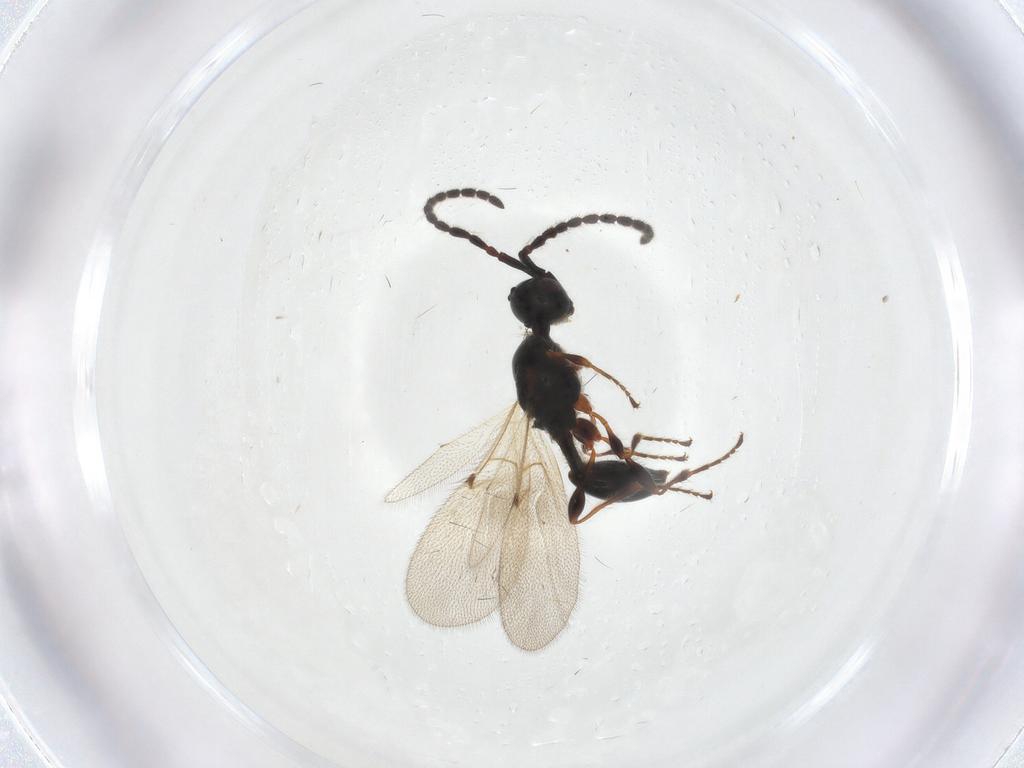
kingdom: Animalia
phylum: Arthropoda
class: Insecta
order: Hymenoptera
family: Diapriidae
